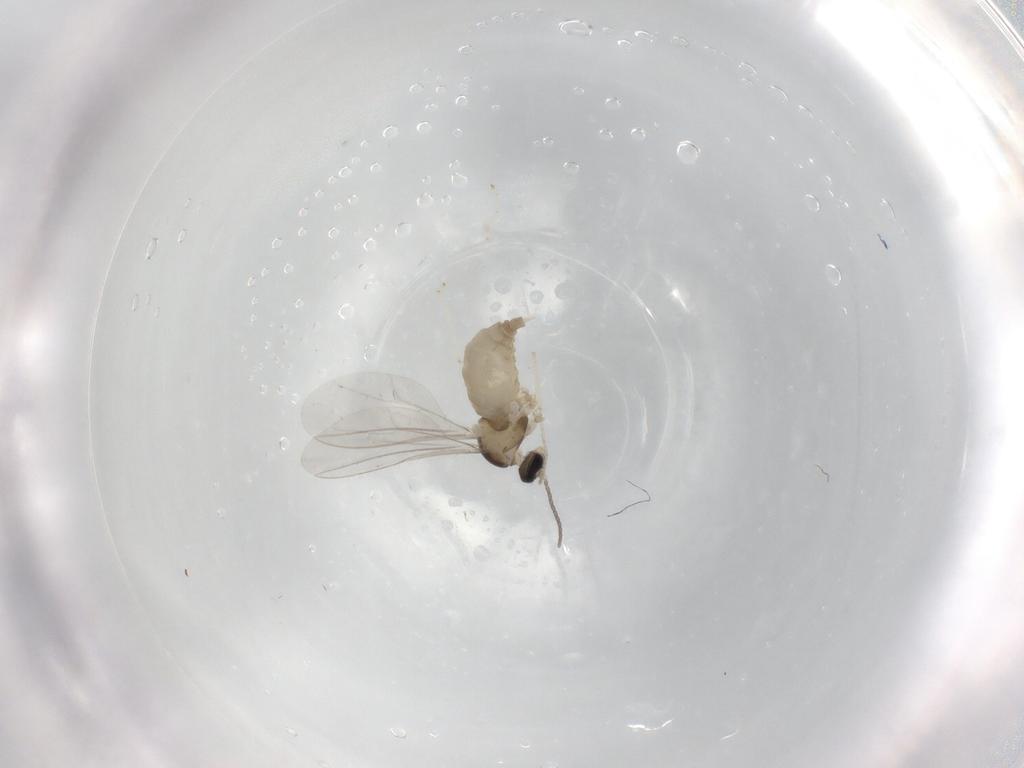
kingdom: Animalia
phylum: Arthropoda
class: Insecta
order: Diptera
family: Cecidomyiidae
